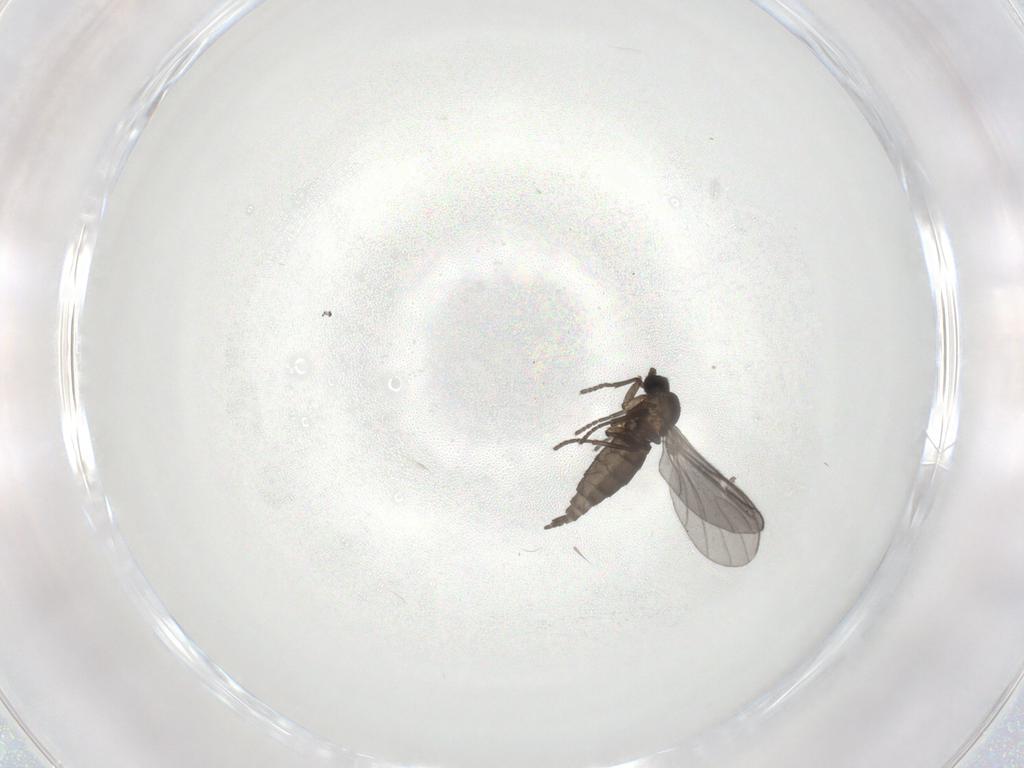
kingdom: Animalia
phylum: Arthropoda
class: Insecta
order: Diptera
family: Sciaridae
